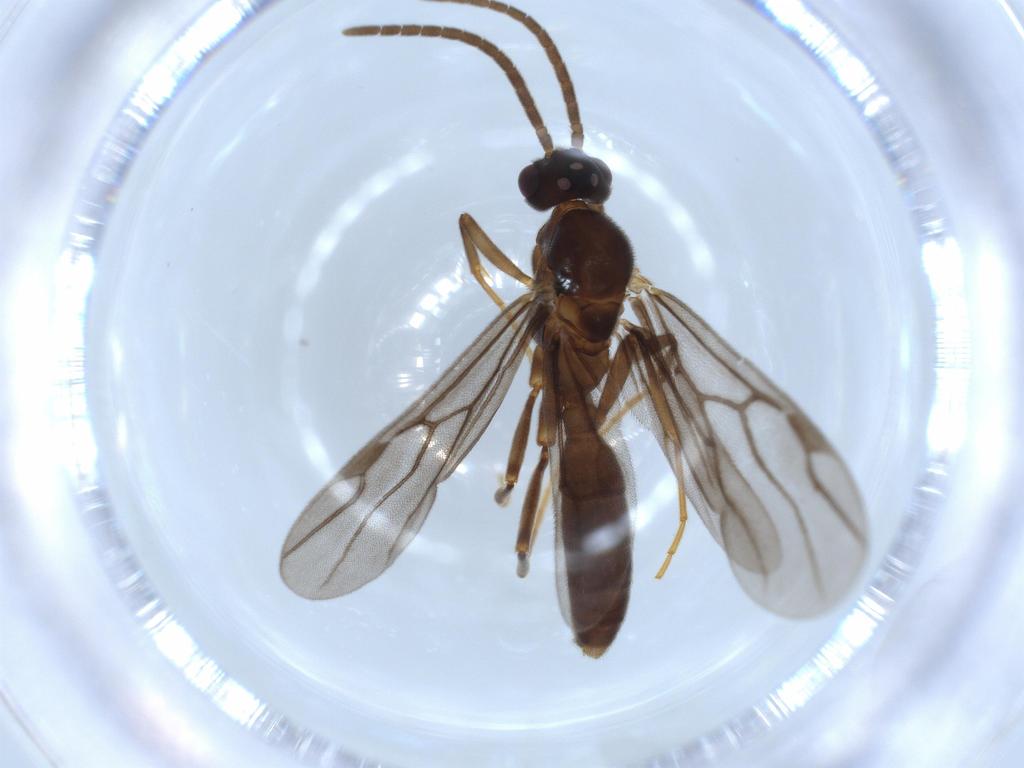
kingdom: Animalia
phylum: Arthropoda
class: Insecta
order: Hymenoptera
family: Formicidae
